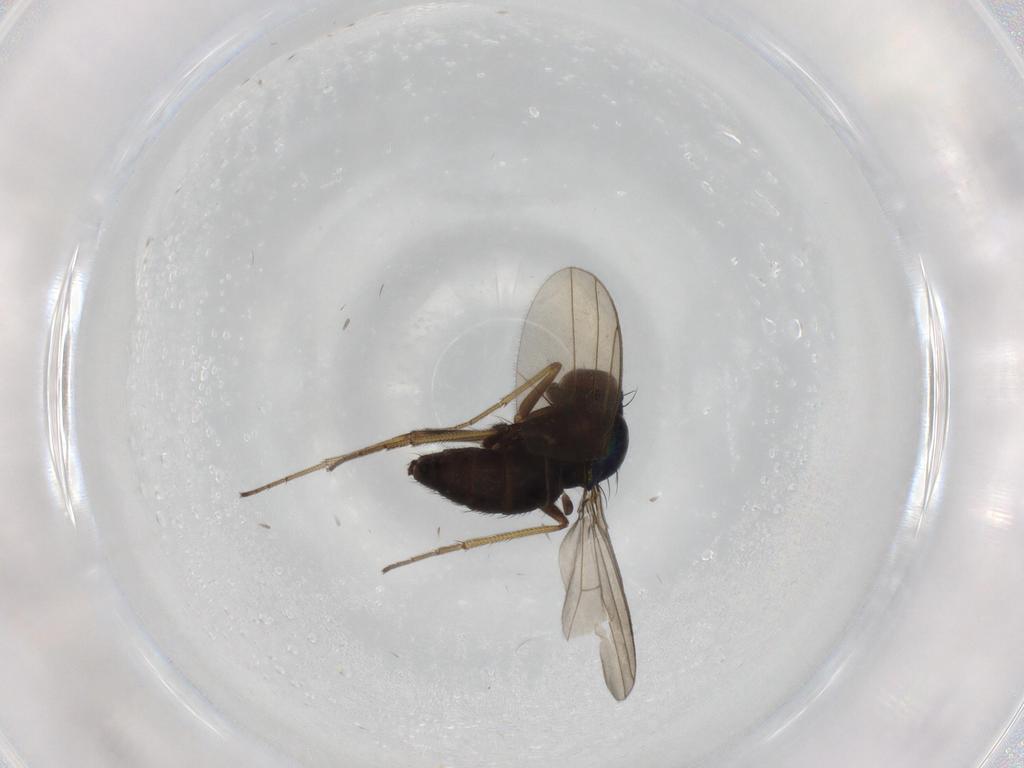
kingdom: Animalia
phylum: Arthropoda
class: Insecta
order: Diptera
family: Dolichopodidae
